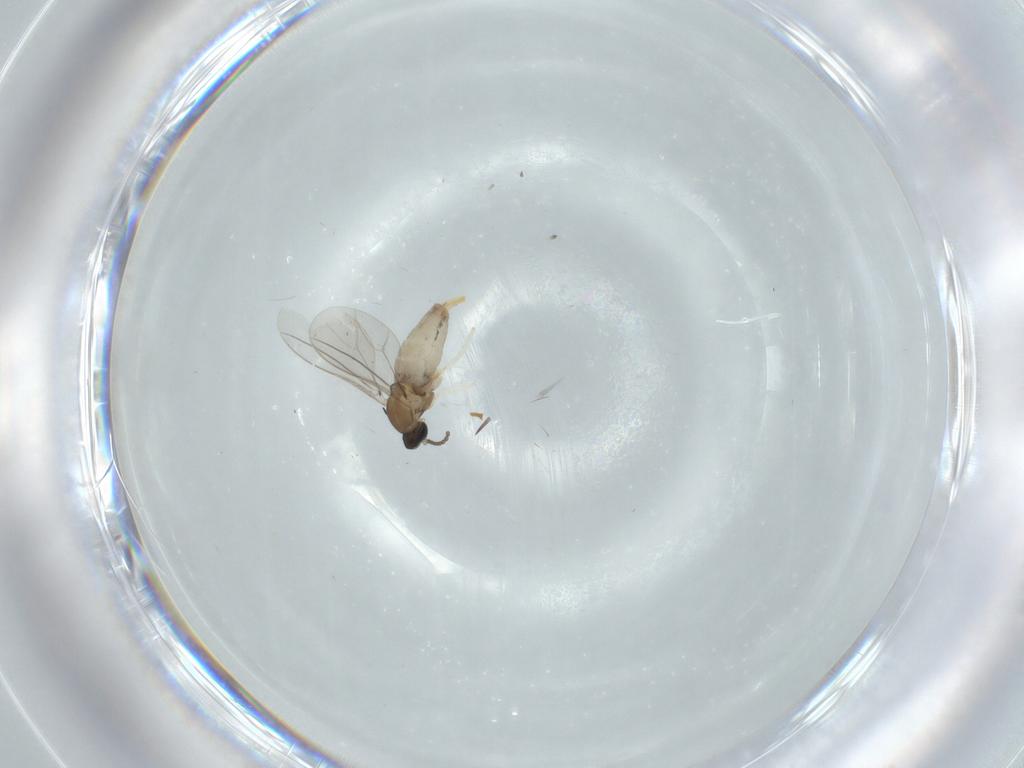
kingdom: Animalia
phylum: Arthropoda
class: Insecta
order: Diptera
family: Cecidomyiidae
